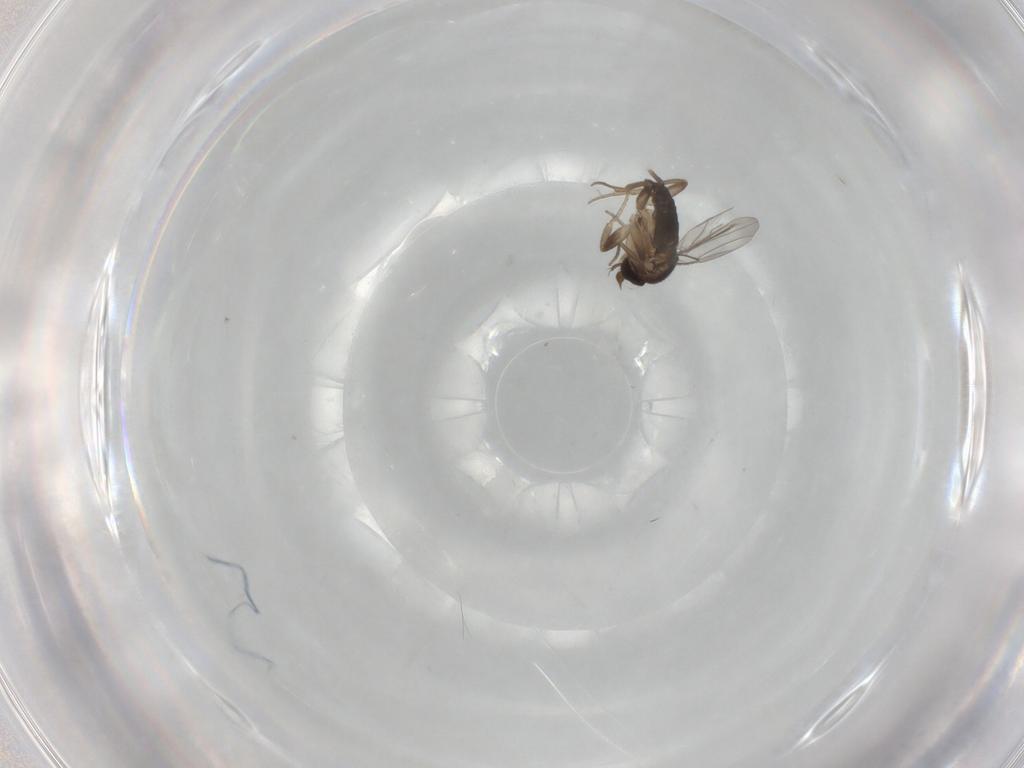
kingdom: Animalia
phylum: Arthropoda
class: Insecta
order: Diptera
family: Phoridae
